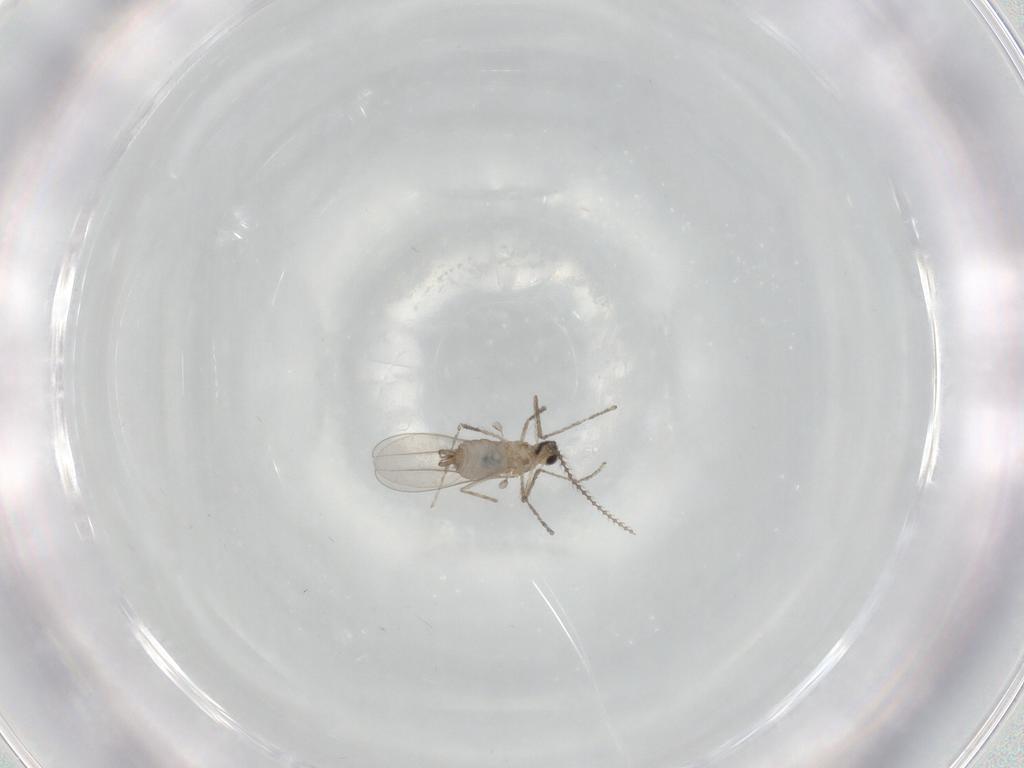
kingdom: Animalia
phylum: Arthropoda
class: Insecta
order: Diptera
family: Cecidomyiidae
